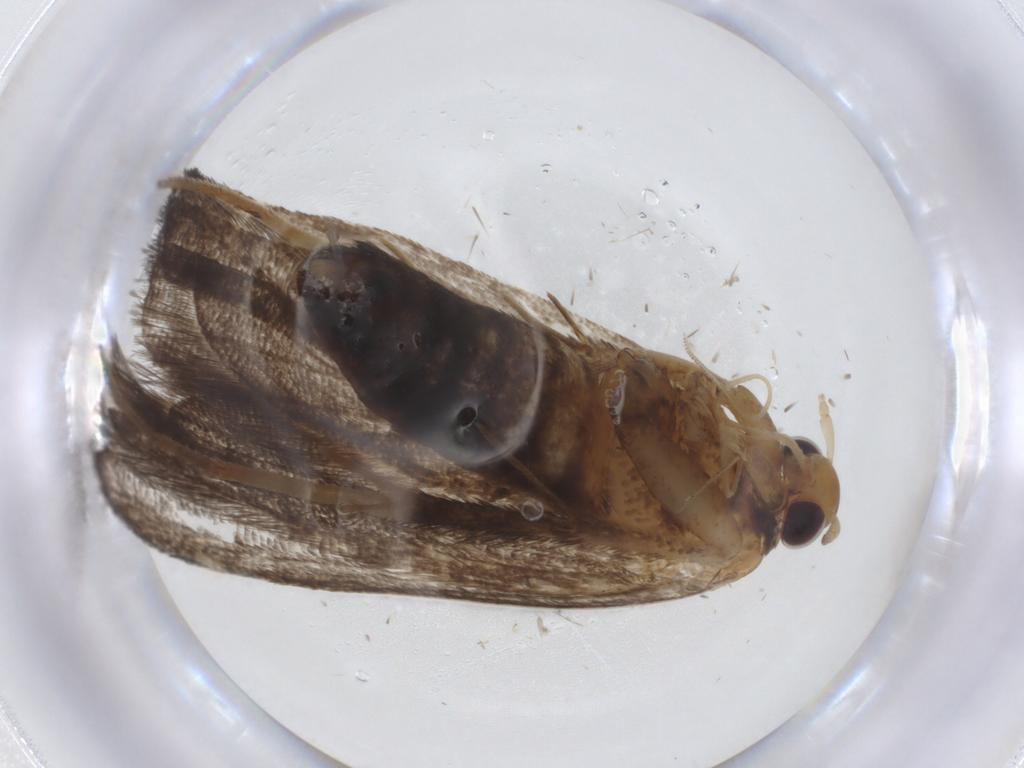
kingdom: Animalia
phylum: Arthropoda
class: Insecta
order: Lepidoptera
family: Lecithoceridae
